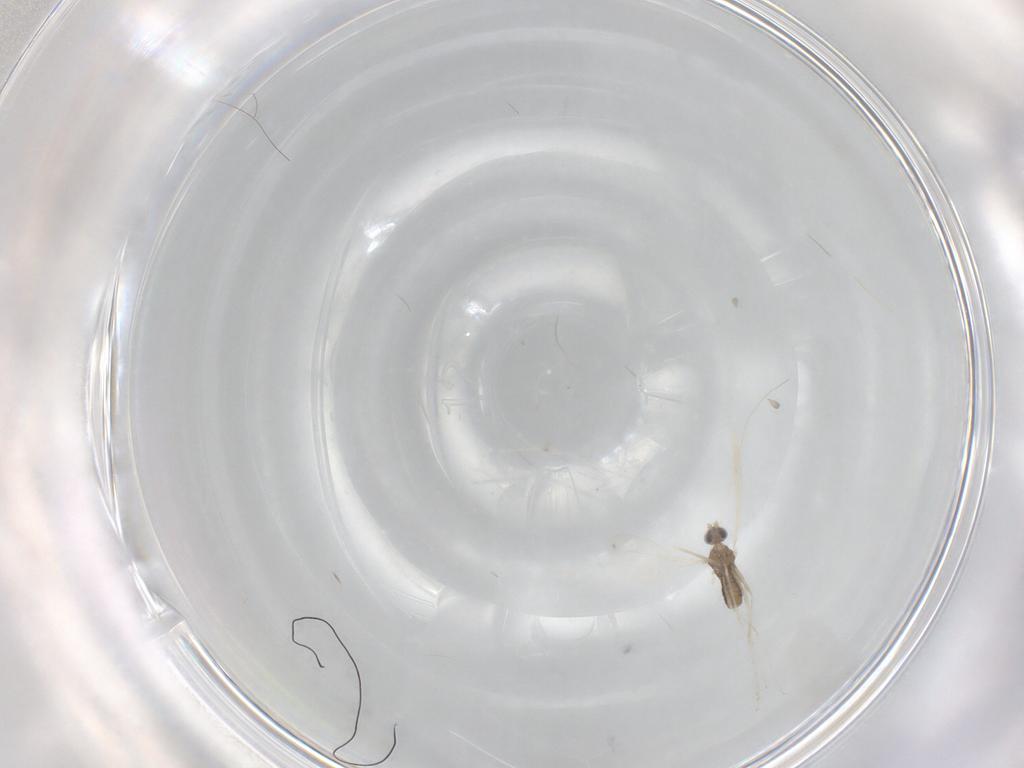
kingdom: Animalia
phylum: Arthropoda
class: Insecta
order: Diptera
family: Cecidomyiidae
